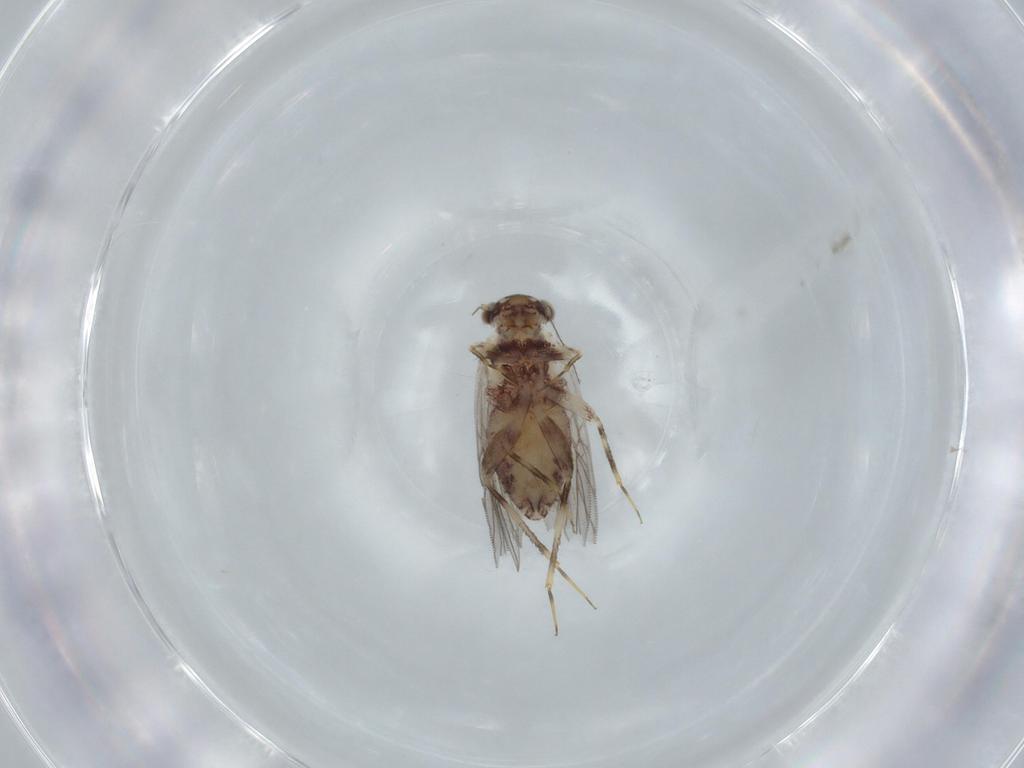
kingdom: Animalia
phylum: Arthropoda
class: Insecta
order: Psocodea
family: Lepidopsocidae
